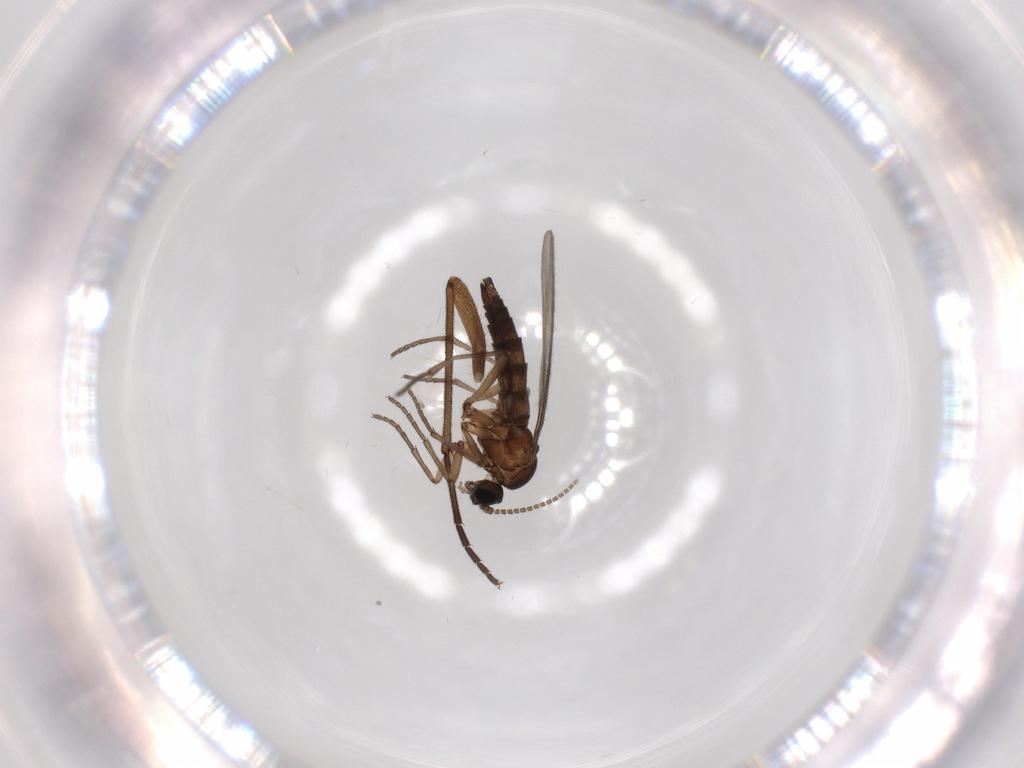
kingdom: Animalia
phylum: Arthropoda
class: Insecta
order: Diptera
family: Sciaridae
